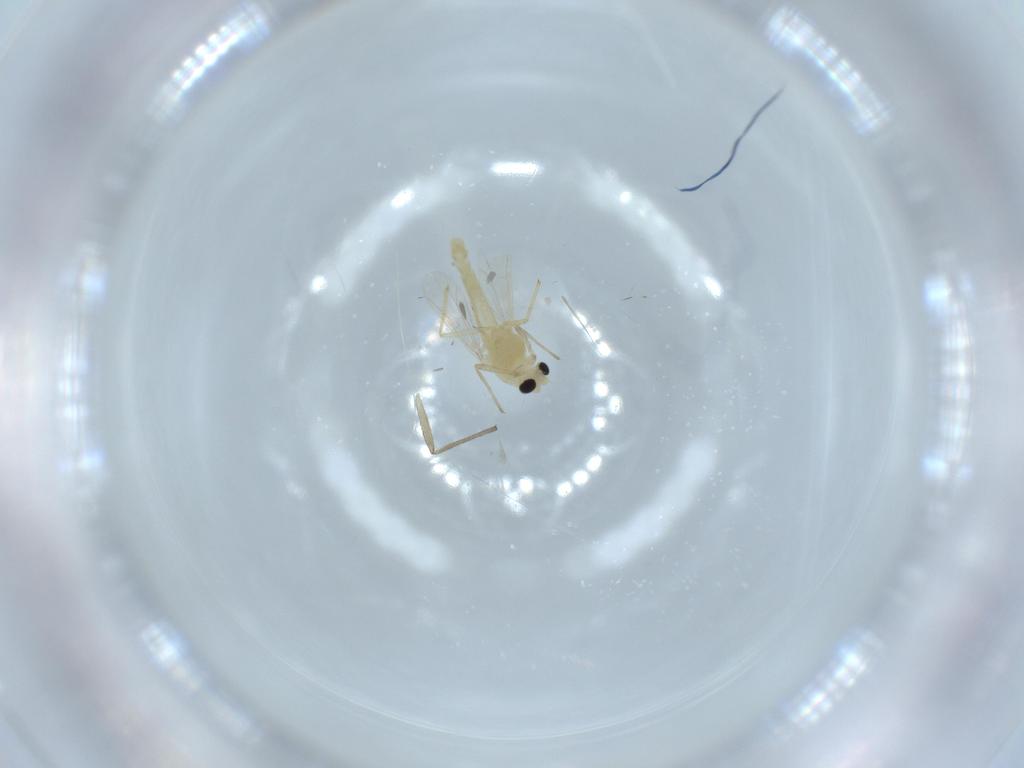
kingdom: Animalia
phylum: Arthropoda
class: Insecta
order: Diptera
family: Chironomidae
